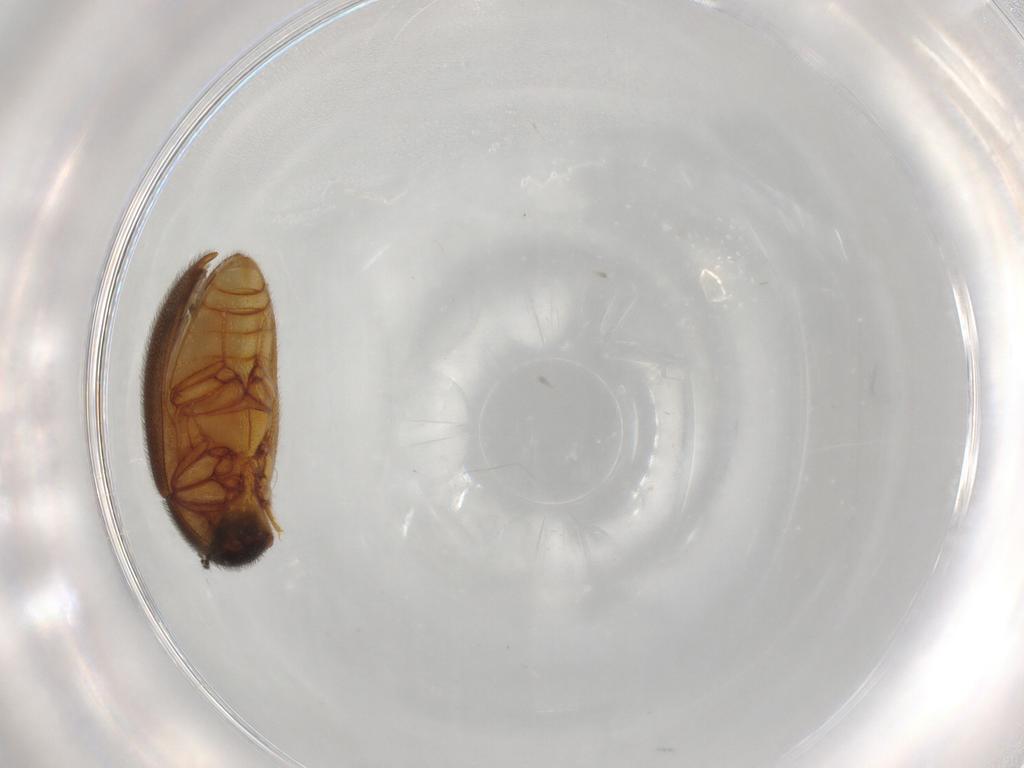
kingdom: Animalia
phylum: Arthropoda
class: Insecta
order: Coleoptera
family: Limnichidae
